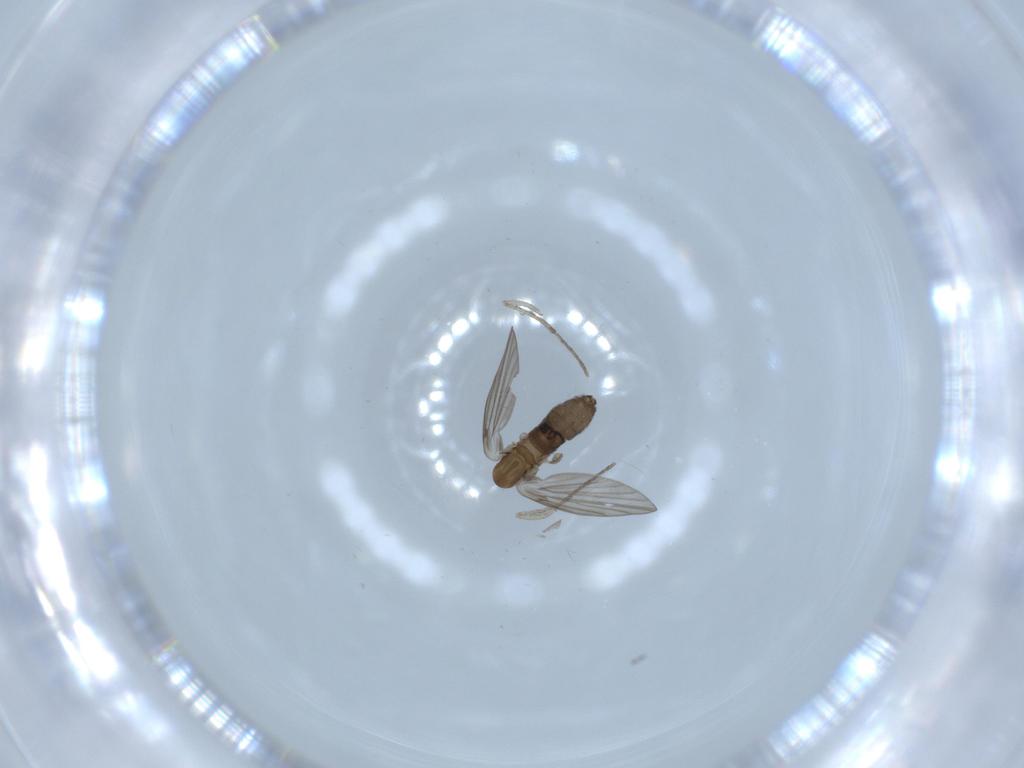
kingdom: Animalia
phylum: Arthropoda
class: Insecta
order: Diptera
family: Psychodidae
